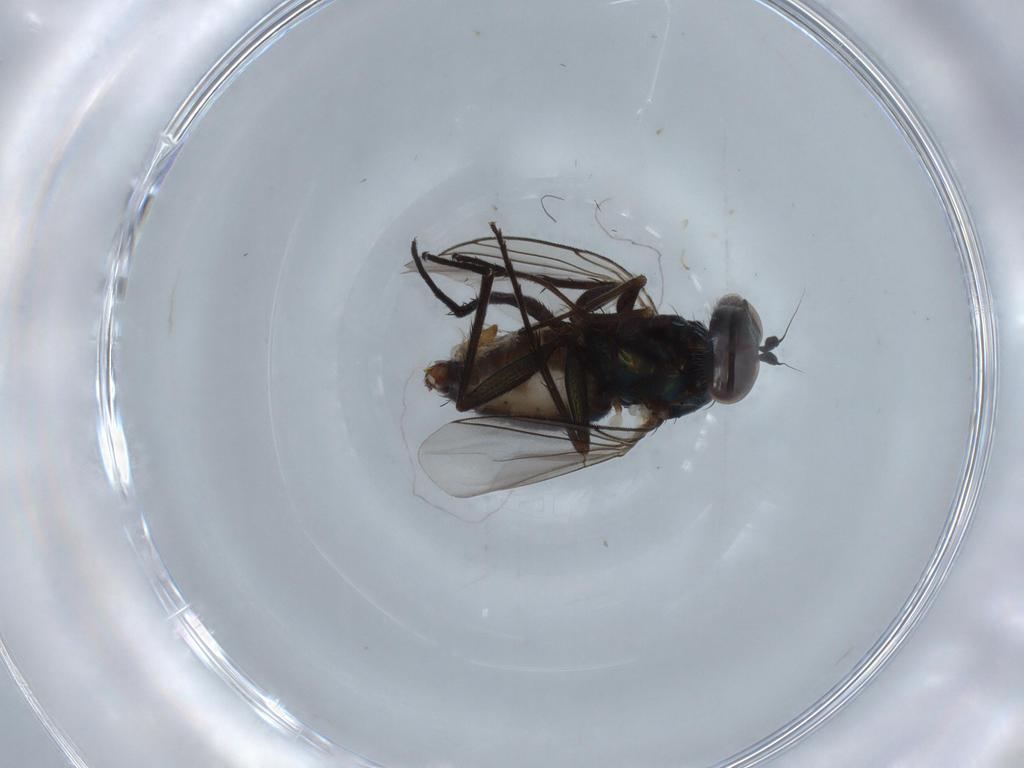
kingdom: Animalia
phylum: Arthropoda
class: Insecta
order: Diptera
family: Dolichopodidae
